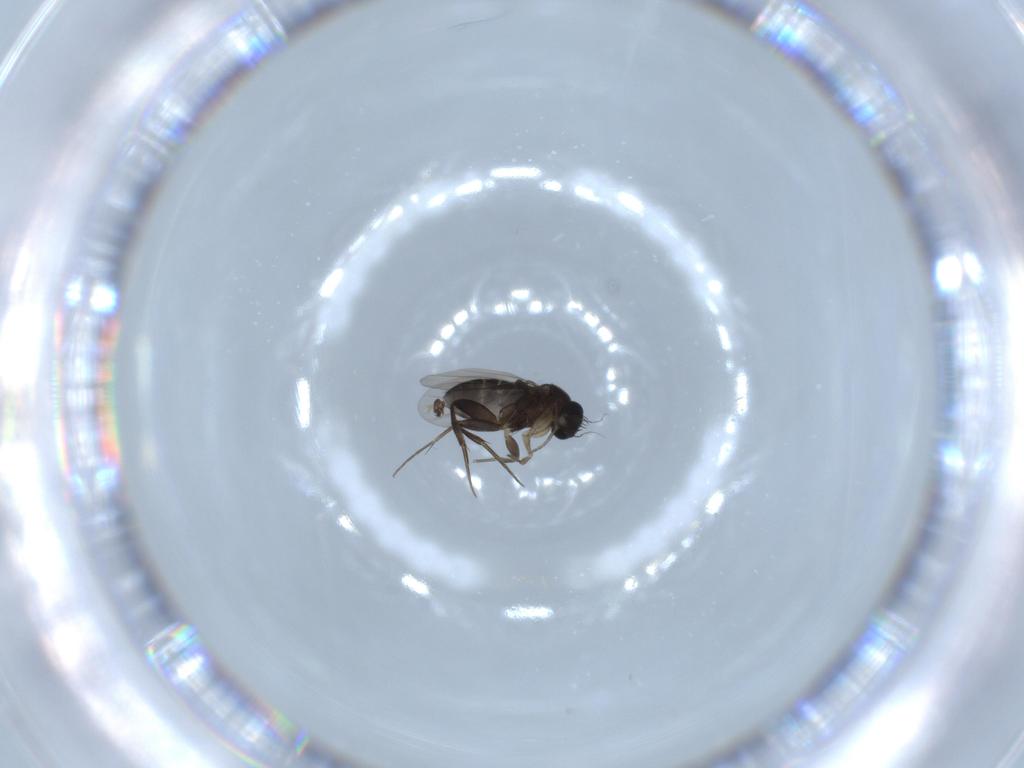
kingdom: Animalia
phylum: Arthropoda
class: Insecta
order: Diptera
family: Phoridae
